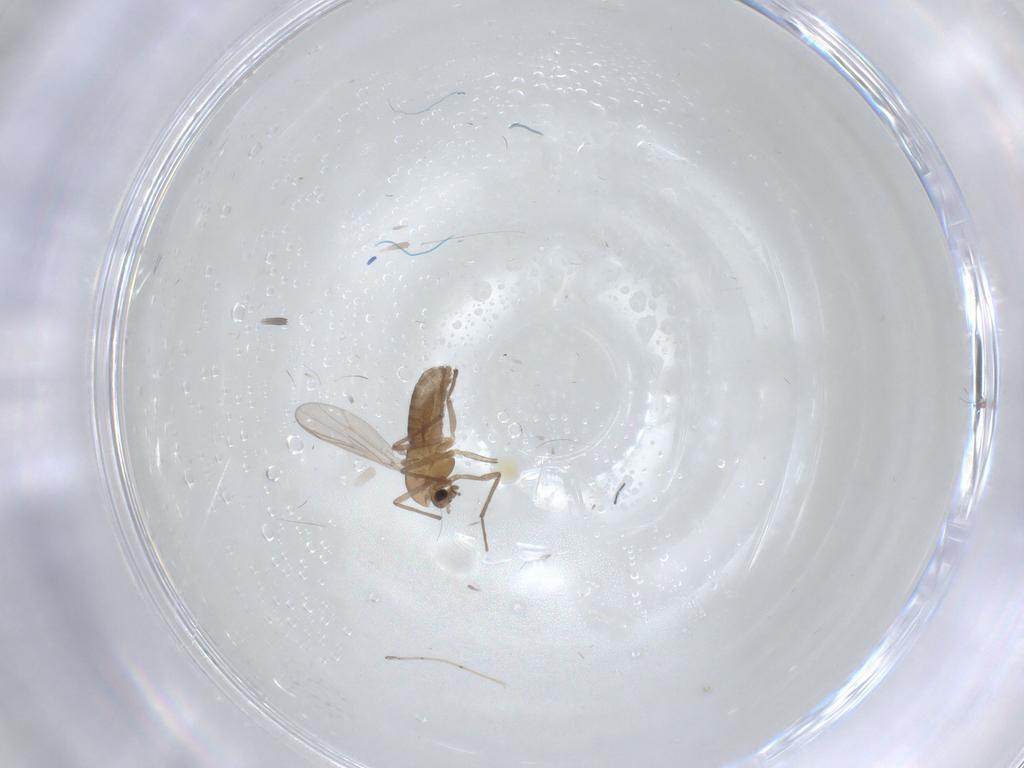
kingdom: Animalia
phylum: Arthropoda
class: Insecta
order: Diptera
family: Chironomidae
